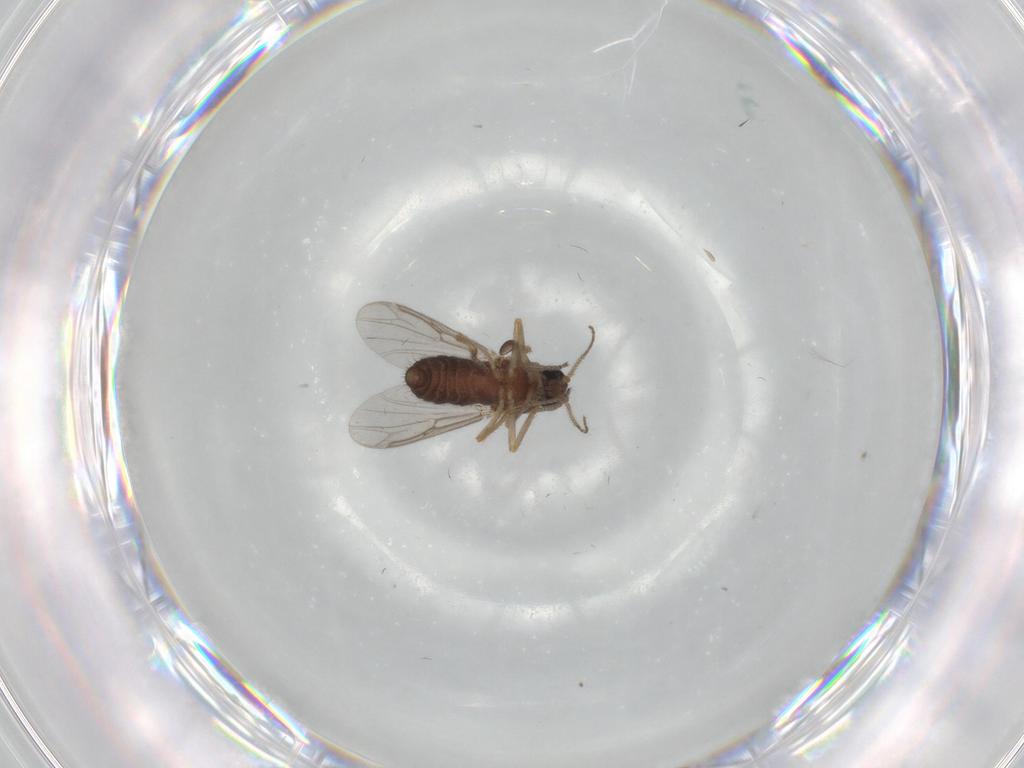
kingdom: Animalia
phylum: Arthropoda
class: Insecta
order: Diptera
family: Ceratopogonidae
